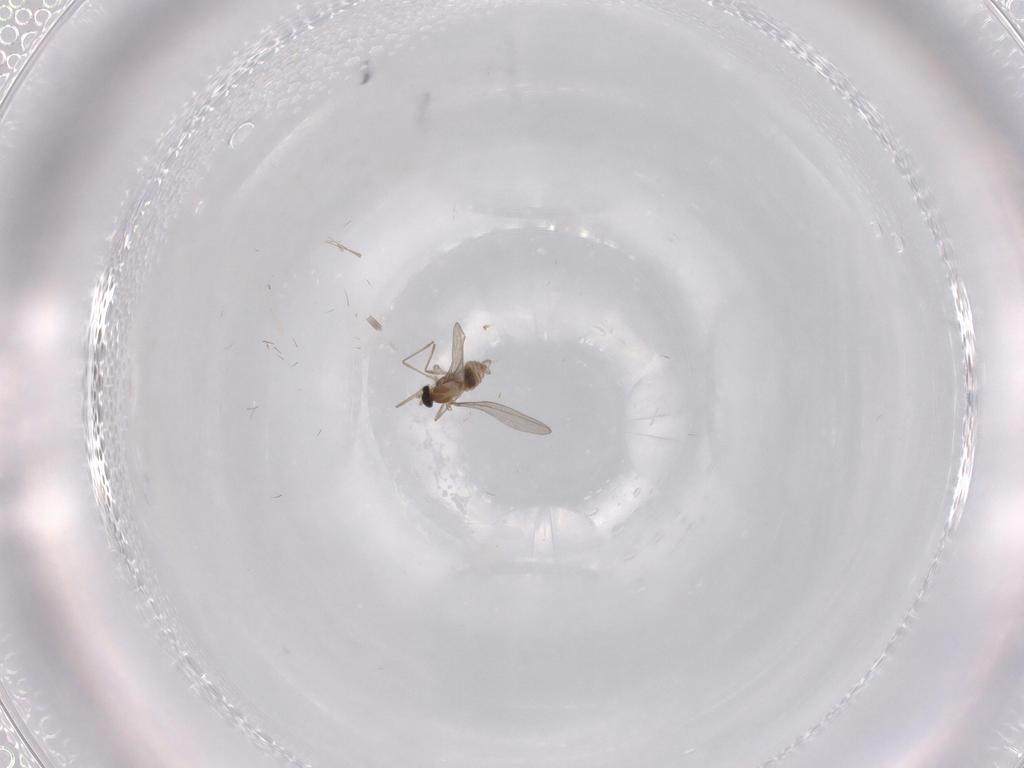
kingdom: Animalia
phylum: Arthropoda
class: Insecta
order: Diptera
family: Cecidomyiidae
